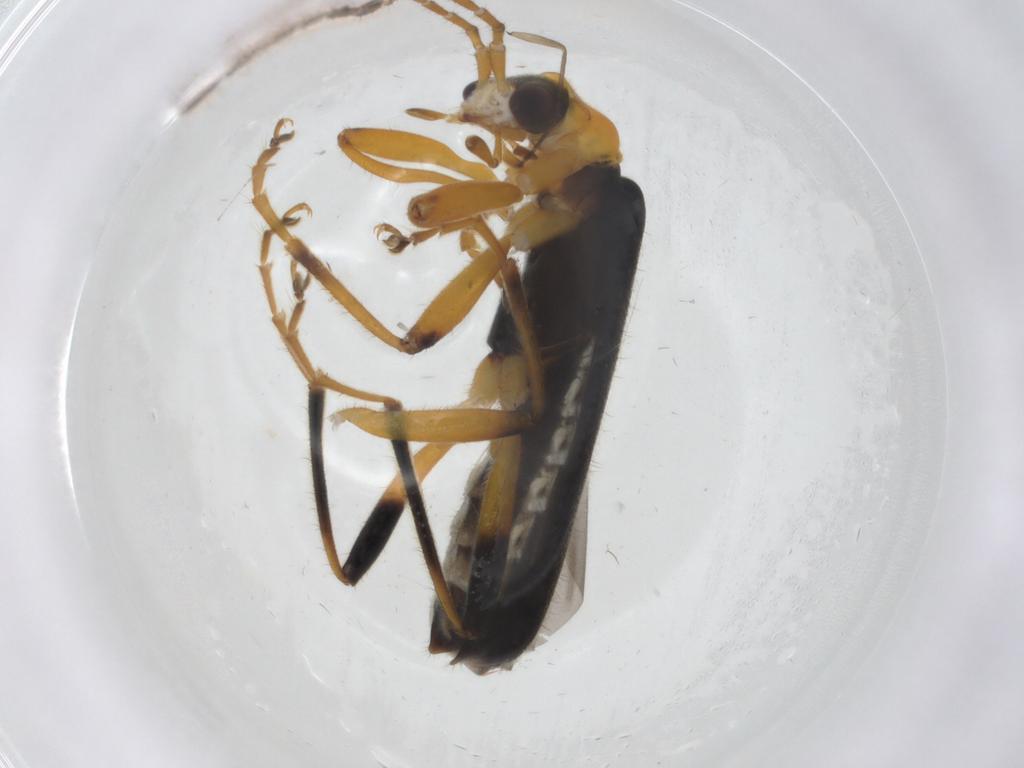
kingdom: Animalia
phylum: Arthropoda
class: Insecta
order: Coleoptera
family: Cantharidae
